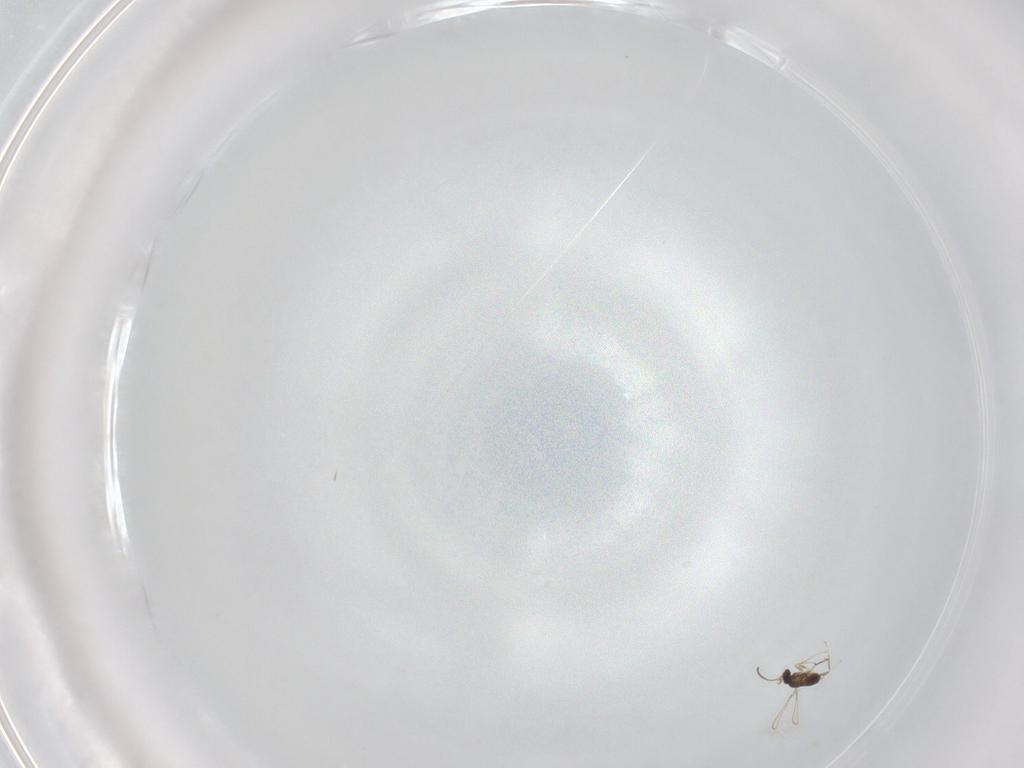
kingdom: Animalia
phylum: Arthropoda
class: Insecta
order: Hymenoptera
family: Bethylidae
